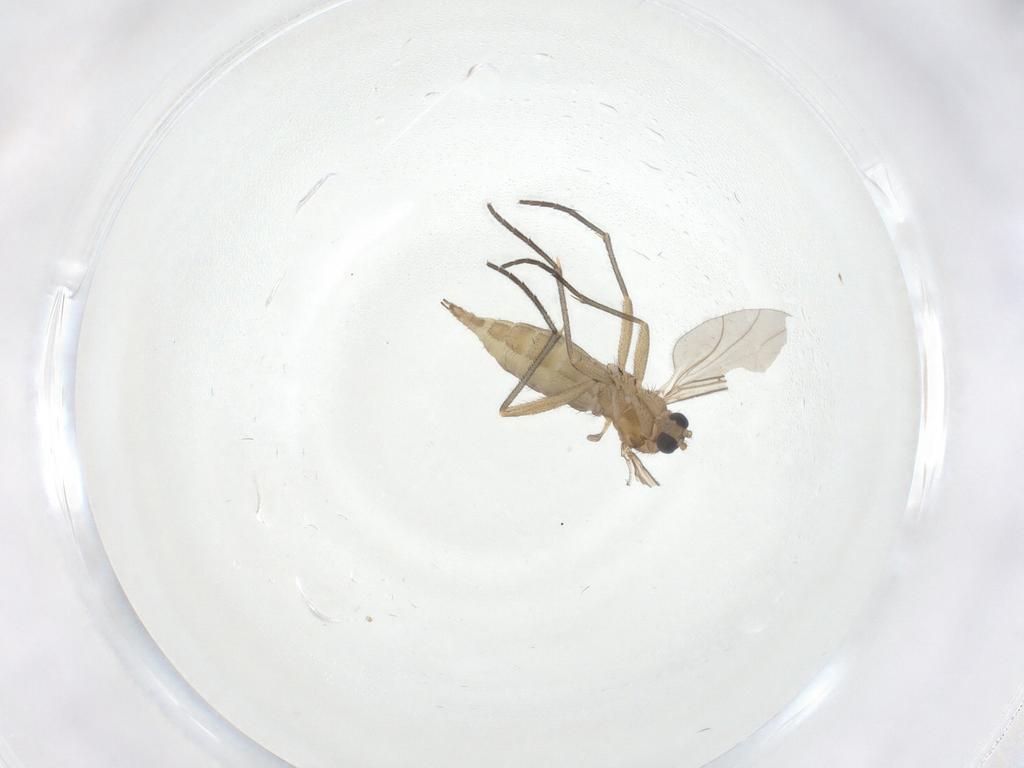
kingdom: Animalia
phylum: Arthropoda
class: Insecta
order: Diptera
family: Sciaridae
